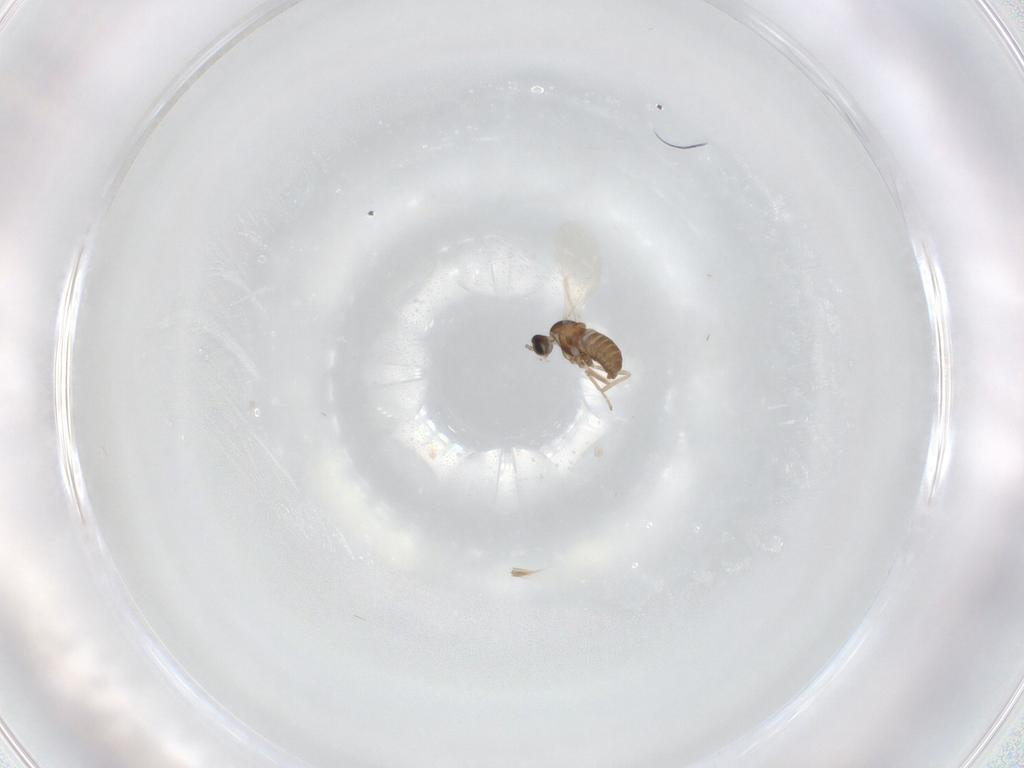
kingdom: Animalia
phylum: Arthropoda
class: Insecta
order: Diptera
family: Cecidomyiidae
